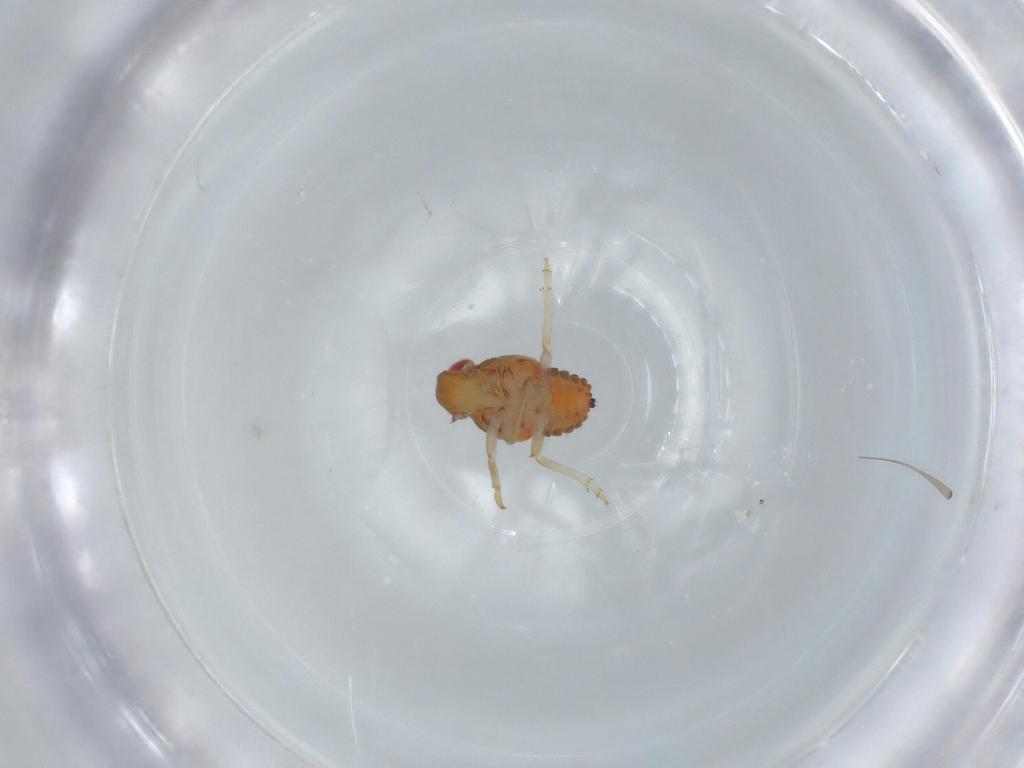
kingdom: Animalia
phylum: Arthropoda
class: Insecta
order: Hemiptera
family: Issidae
